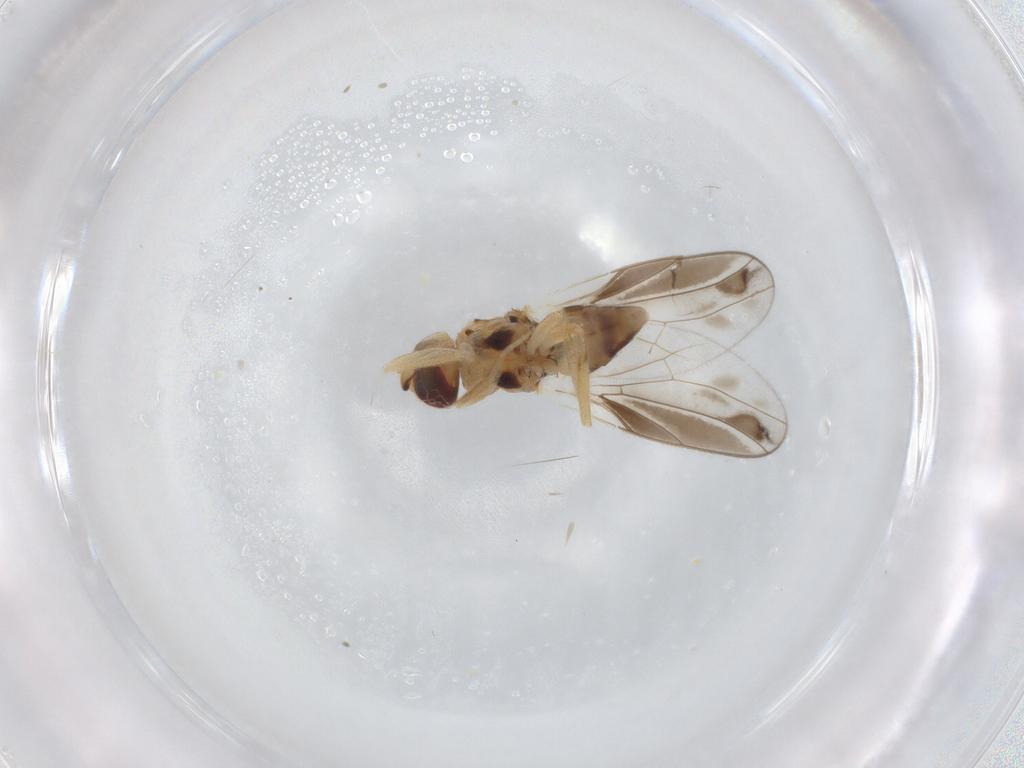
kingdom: Animalia
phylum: Arthropoda
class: Insecta
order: Diptera
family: Chloropidae
